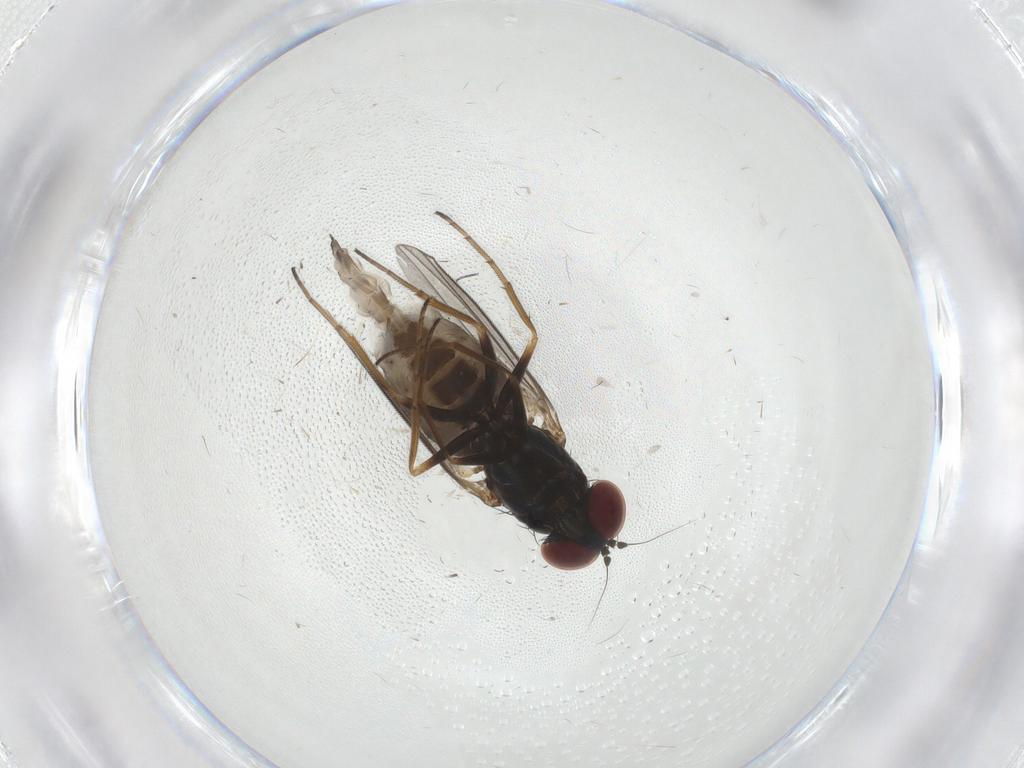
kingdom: Animalia
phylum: Arthropoda
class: Insecta
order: Diptera
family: Dolichopodidae
